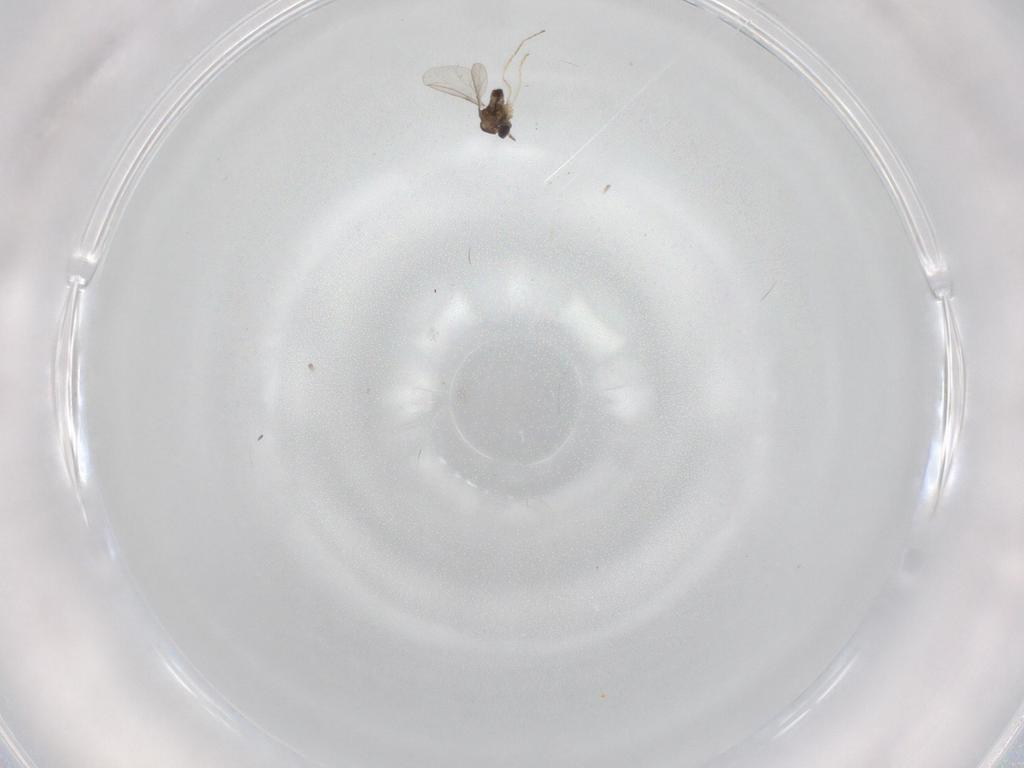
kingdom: Animalia
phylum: Arthropoda
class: Insecta
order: Diptera
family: Cecidomyiidae
